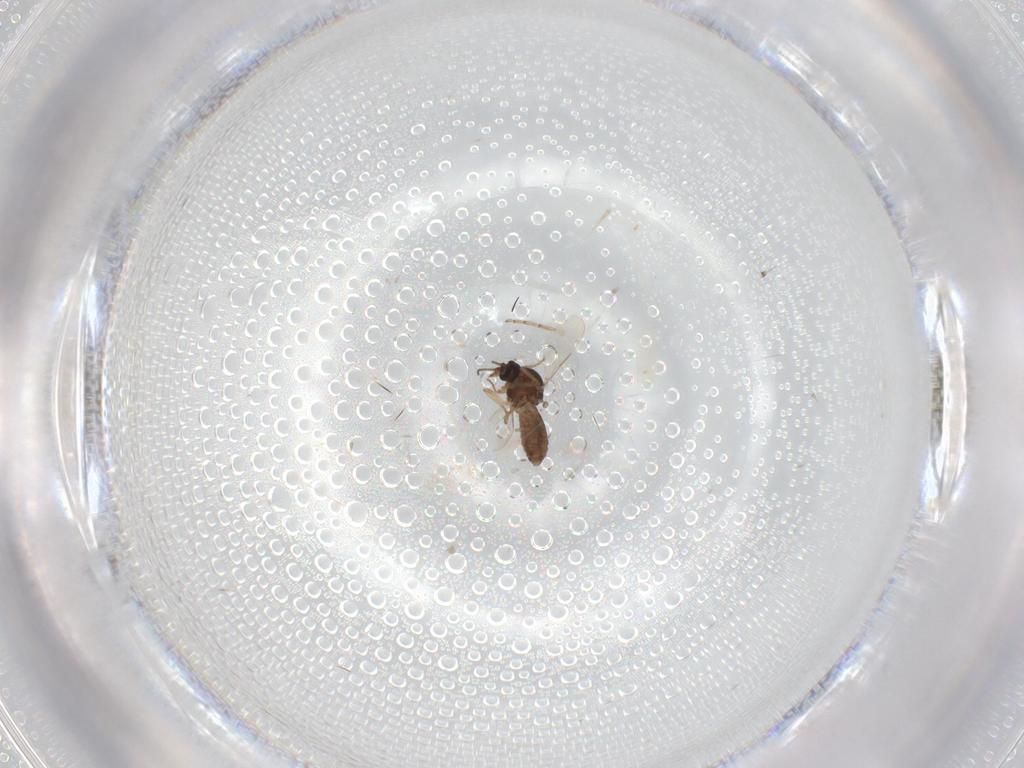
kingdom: Animalia
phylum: Arthropoda
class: Insecta
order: Diptera
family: Ceratopogonidae
